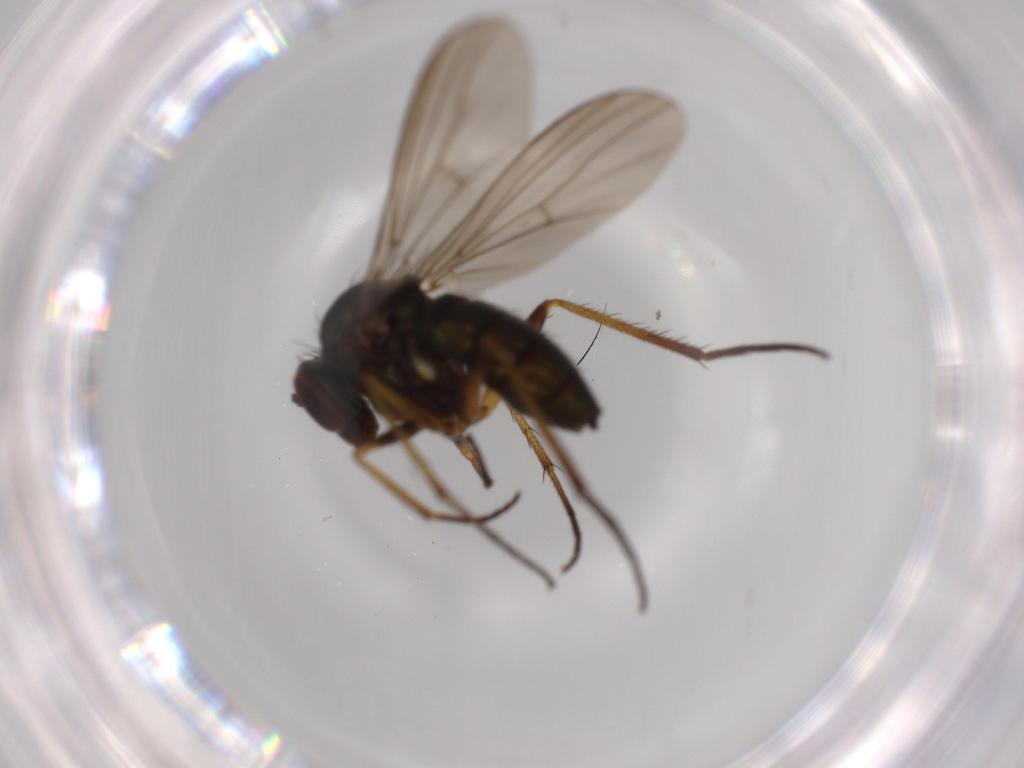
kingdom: Animalia
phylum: Arthropoda
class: Insecta
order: Diptera
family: Dolichopodidae
